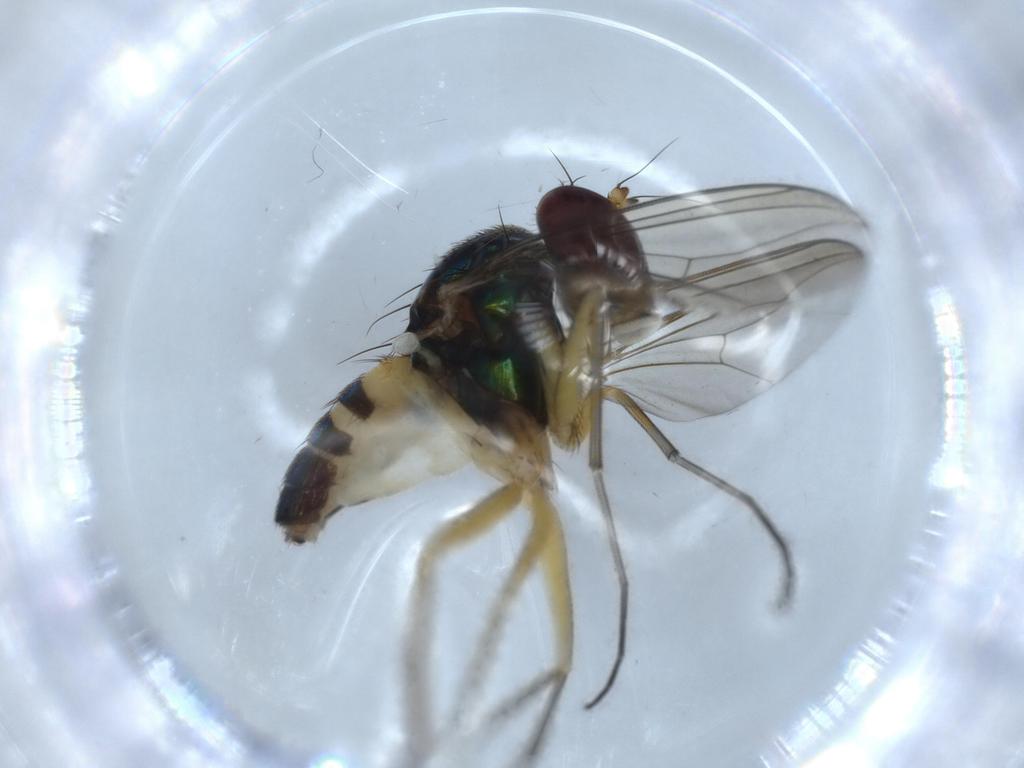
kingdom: Animalia
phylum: Arthropoda
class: Insecta
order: Diptera
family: Dolichopodidae
